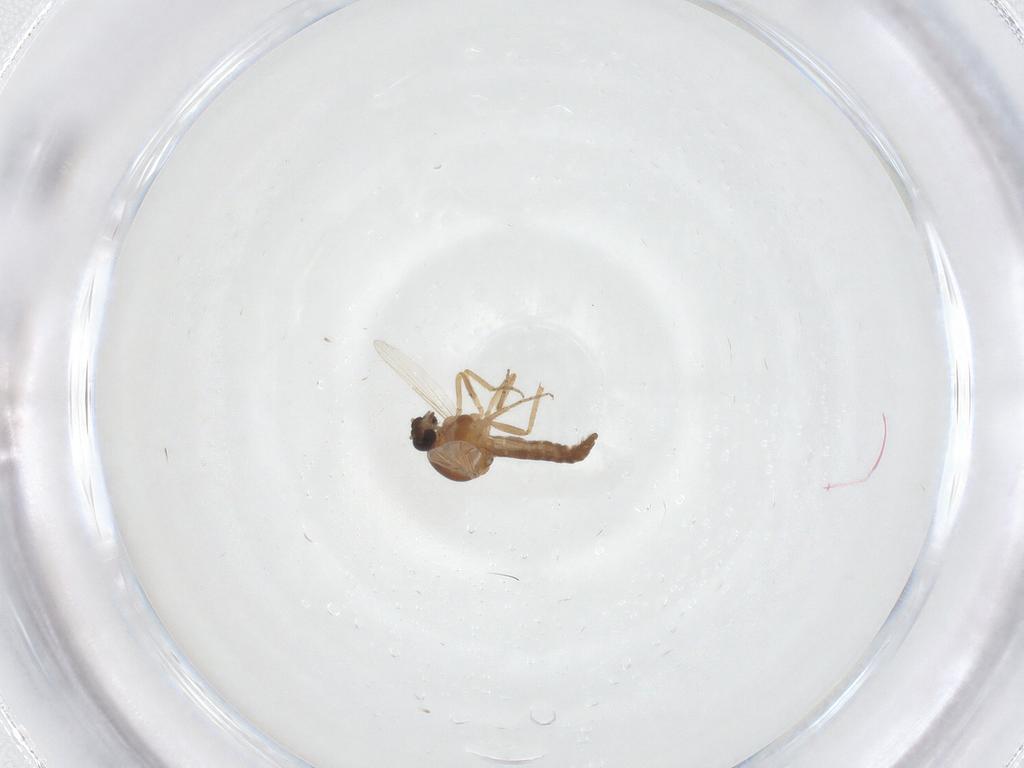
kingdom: Animalia
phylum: Arthropoda
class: Insecta
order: Diptera
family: Ceratopogonidae
